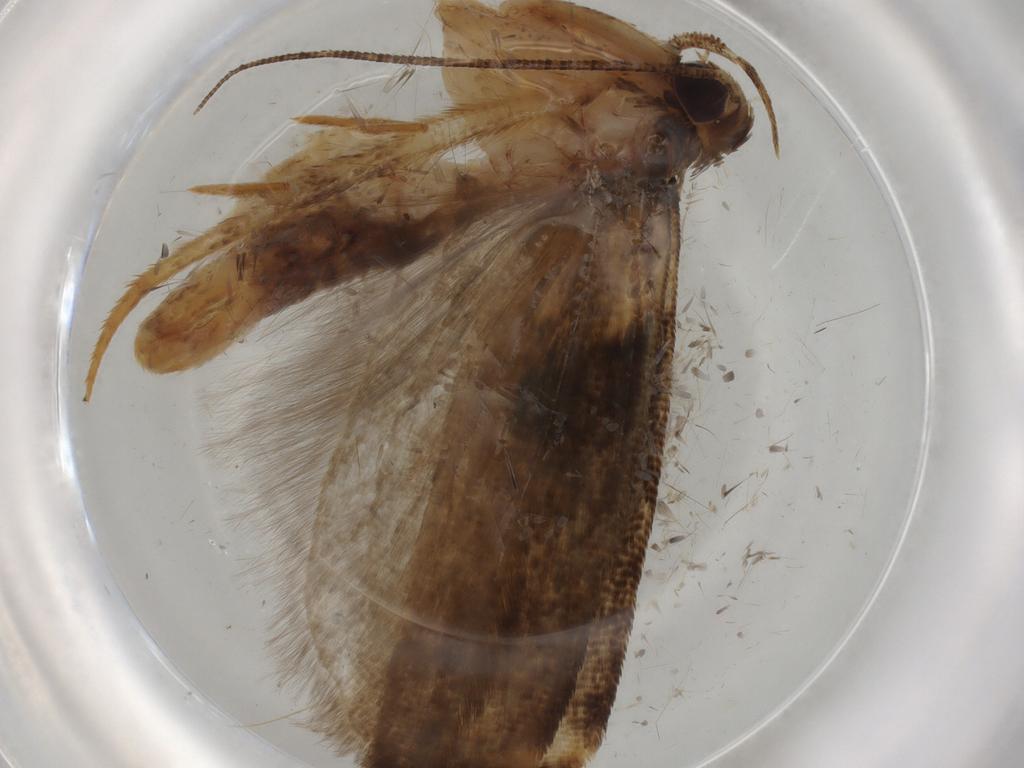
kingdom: Animalia
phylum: Arthropoda
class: Insecta
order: Lepidoptera
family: Gelechiidae
